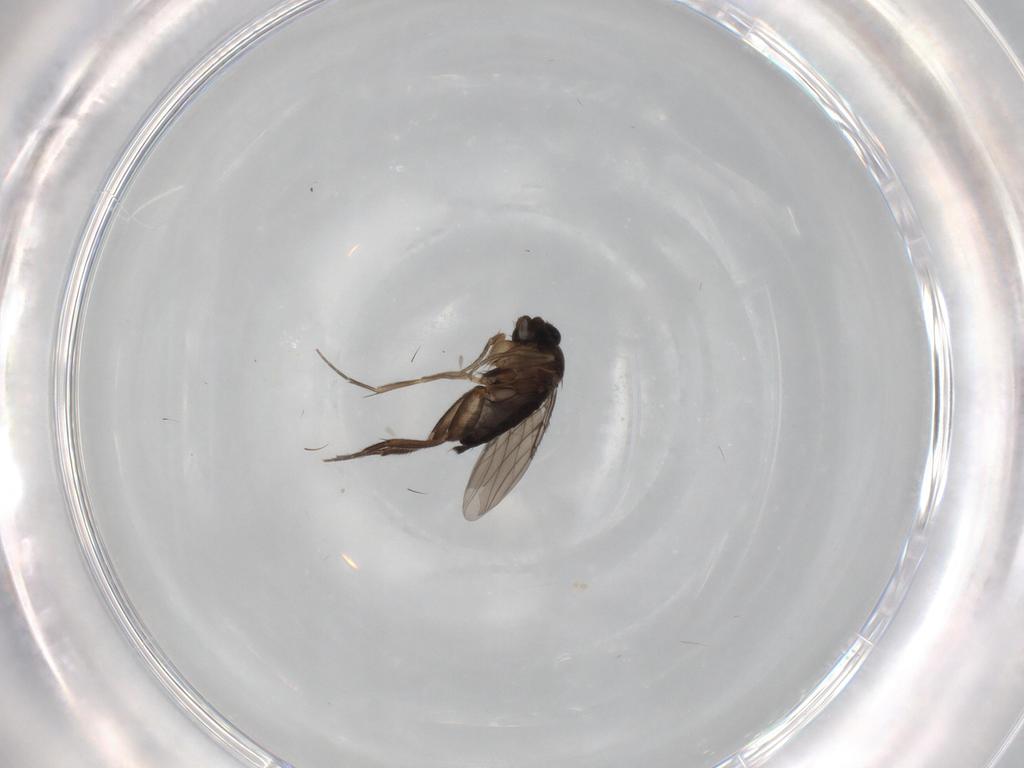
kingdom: Animalia
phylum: Arthropoda
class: Insecta
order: Diptera
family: Phoridae
